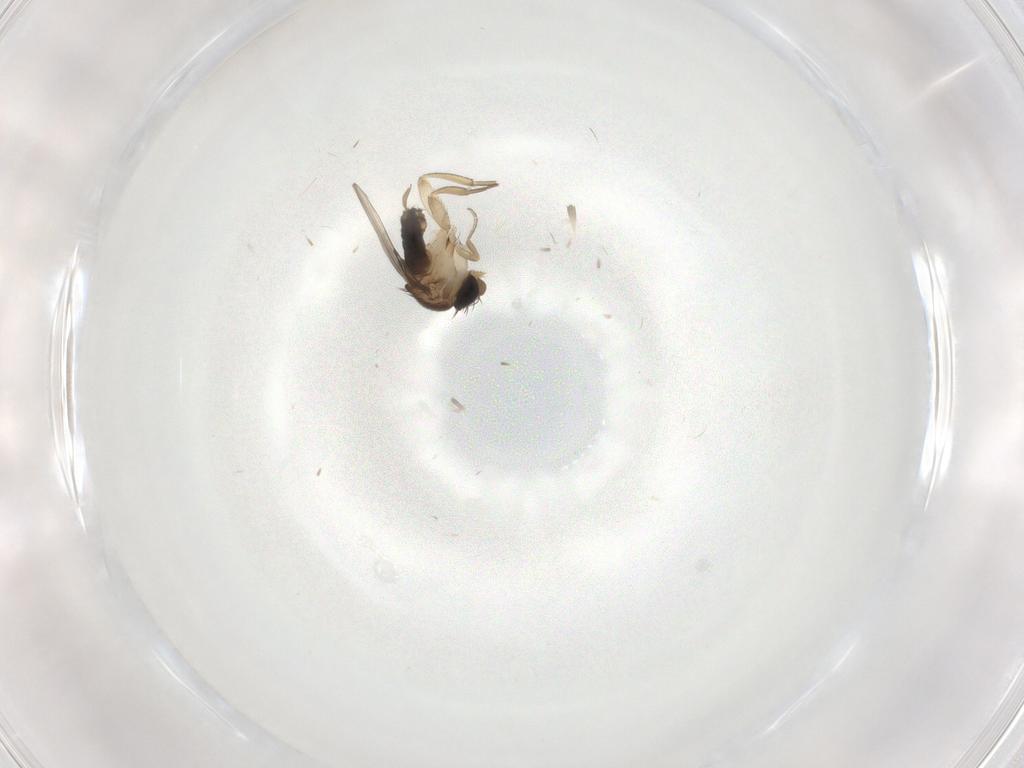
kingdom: Animalia
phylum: Arthropoda
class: Insecta
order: Diptera
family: Milichiidae
